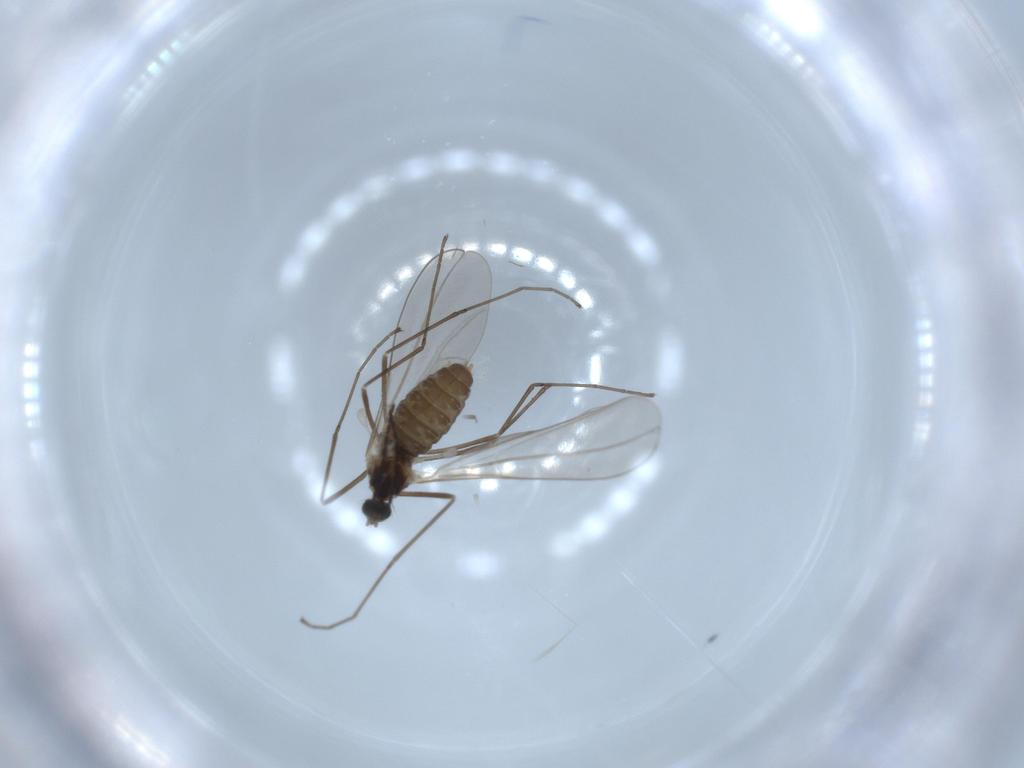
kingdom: Animalia
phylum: Arthropoda
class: Insecta
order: Diptera
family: Cecidomyiidae
